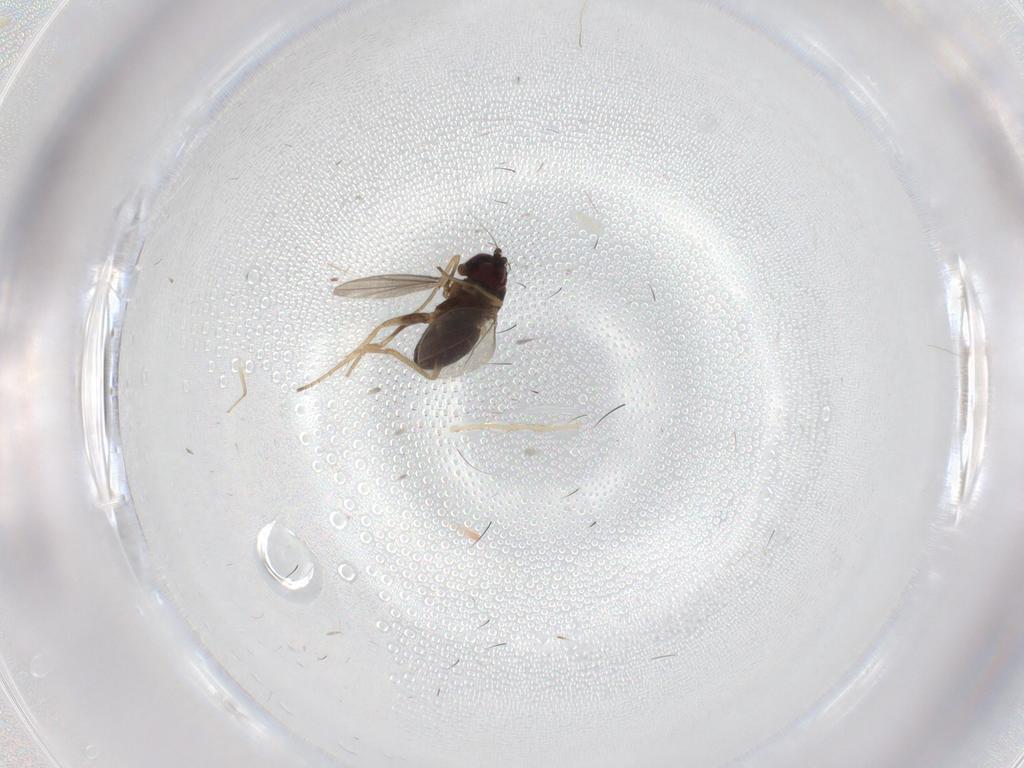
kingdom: Animalia
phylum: Arthropoda
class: Insecta
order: Diptera
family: Dolichopodidae
